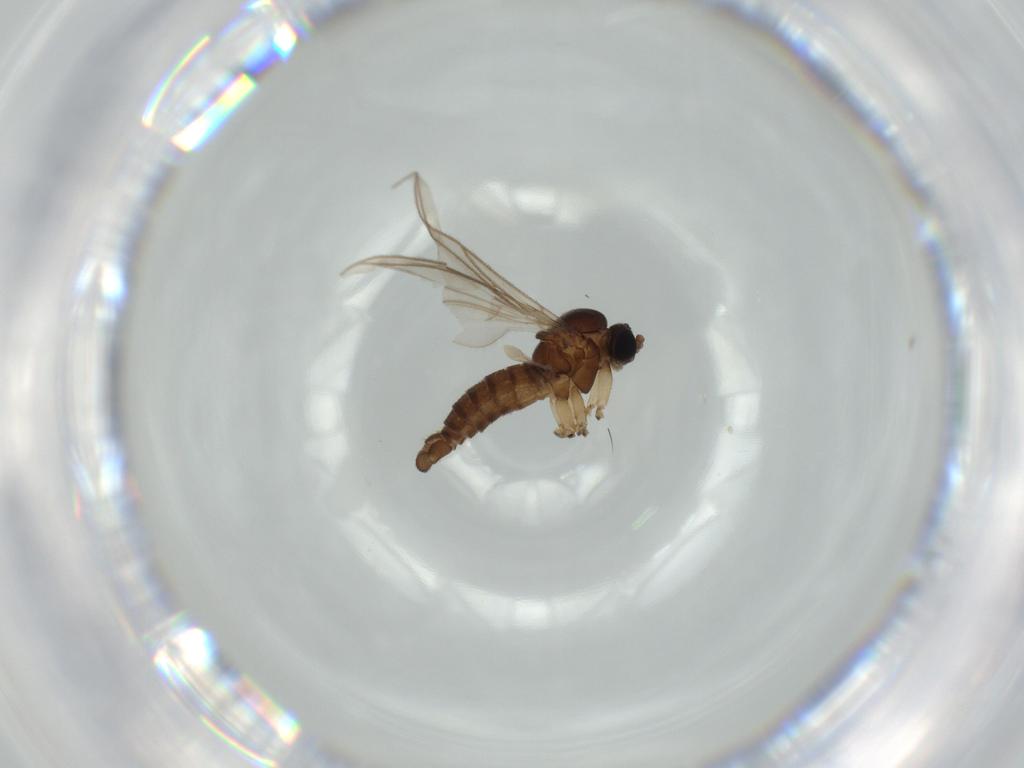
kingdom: Animalia
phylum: Arthropoda
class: Insecta
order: Diptera
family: Sciaridae
